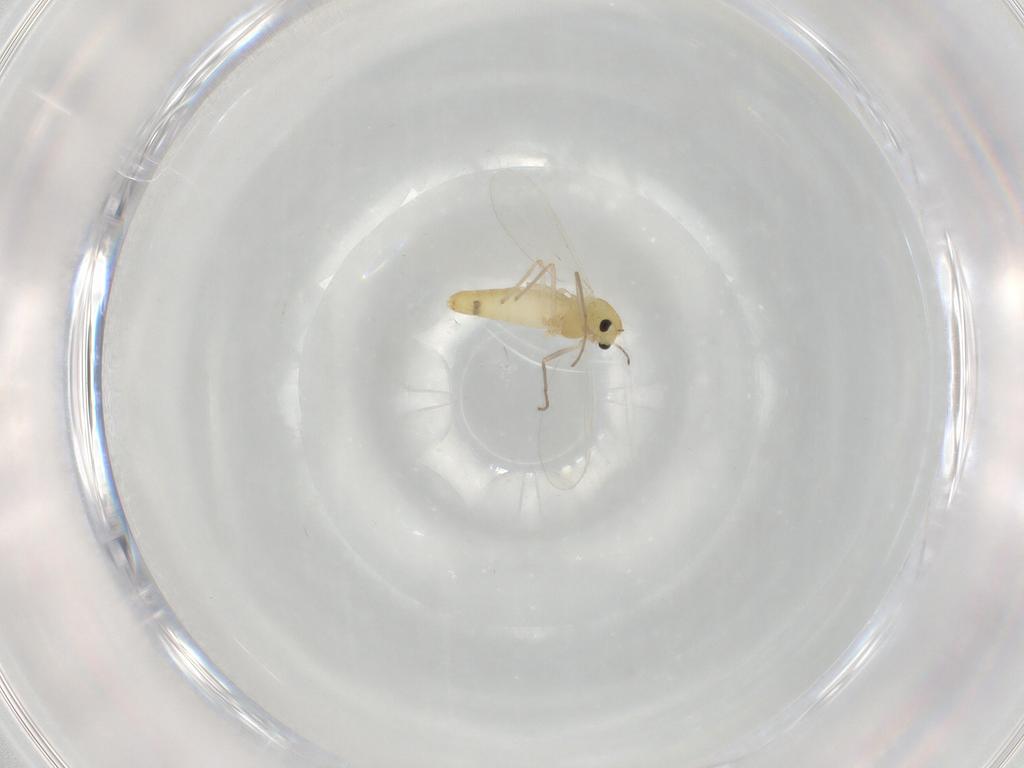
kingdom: Animalia
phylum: Arthropoda
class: Insecta
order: Diptera
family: Chironomidae
